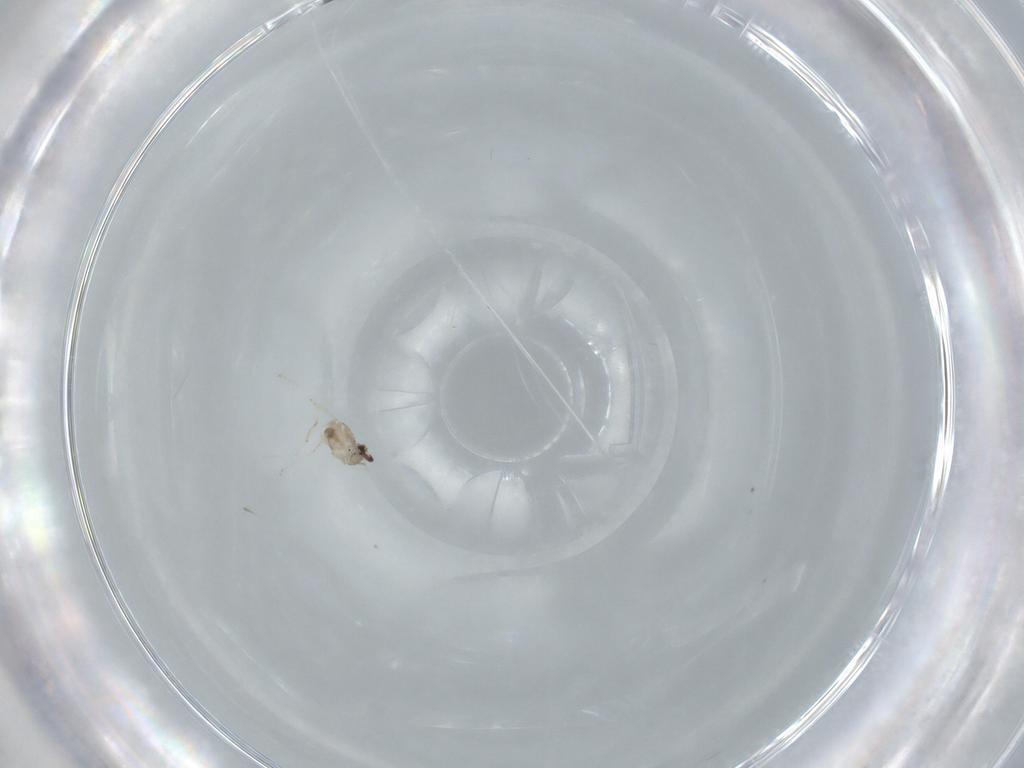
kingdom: Animalia
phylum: Arthropoda
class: Insecta
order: Diptera
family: Cecidomyiidae
